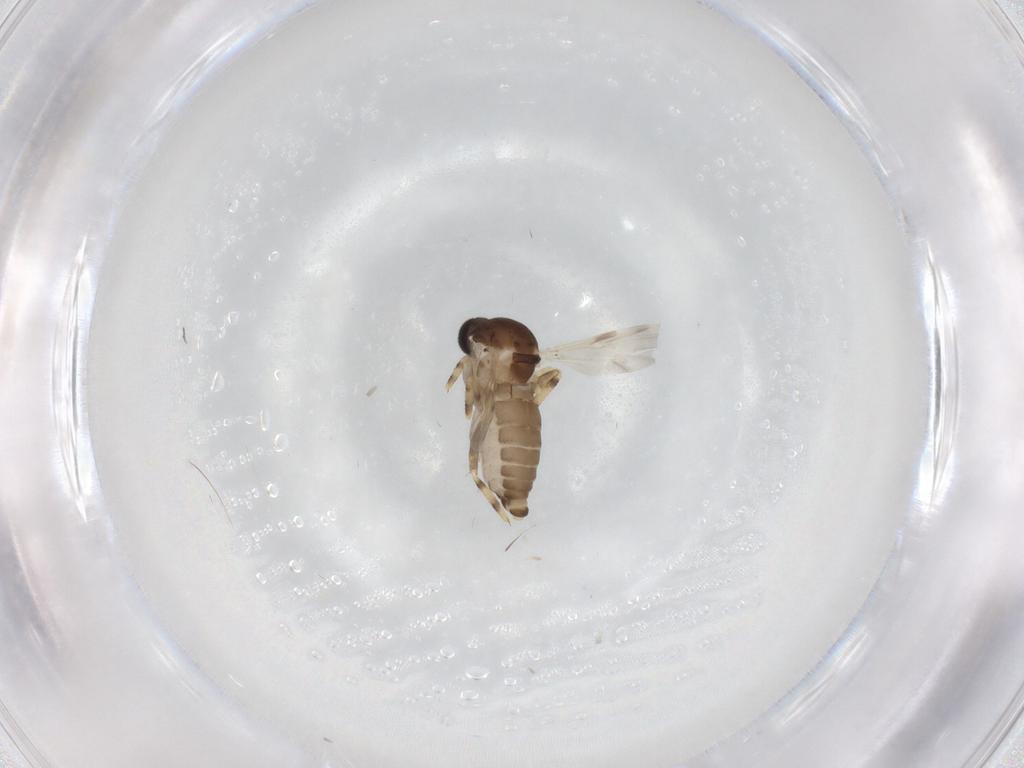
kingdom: Animalia
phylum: Arthropoda
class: Insecta
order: Diptera
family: Ceratopogonidae
